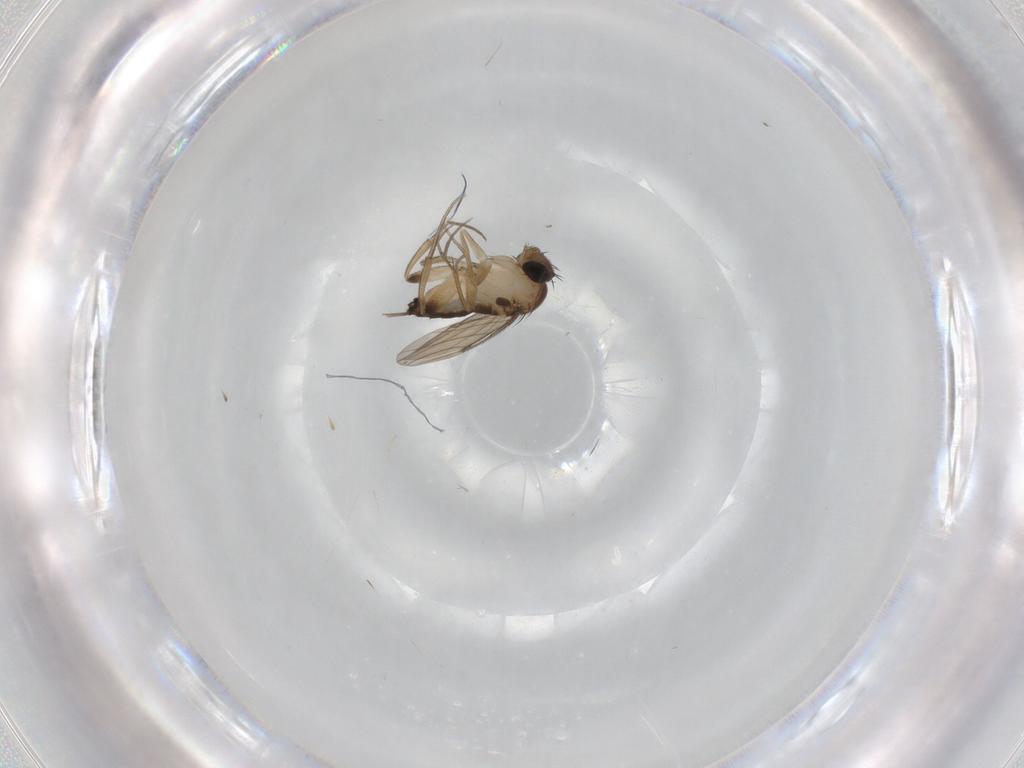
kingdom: Animalia
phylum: Arthropoda
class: Insecta
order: Diptera
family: Phoridae
